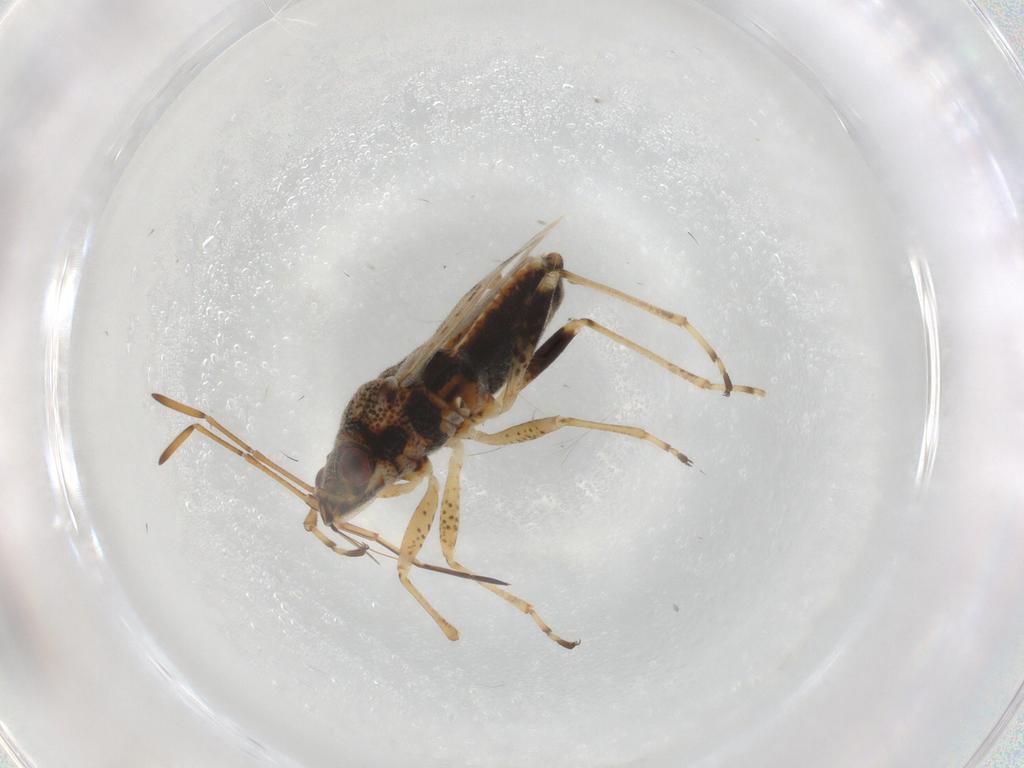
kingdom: Animalia
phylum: Arthropoda
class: Insecta
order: Hemiptera
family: Lygaeidae
